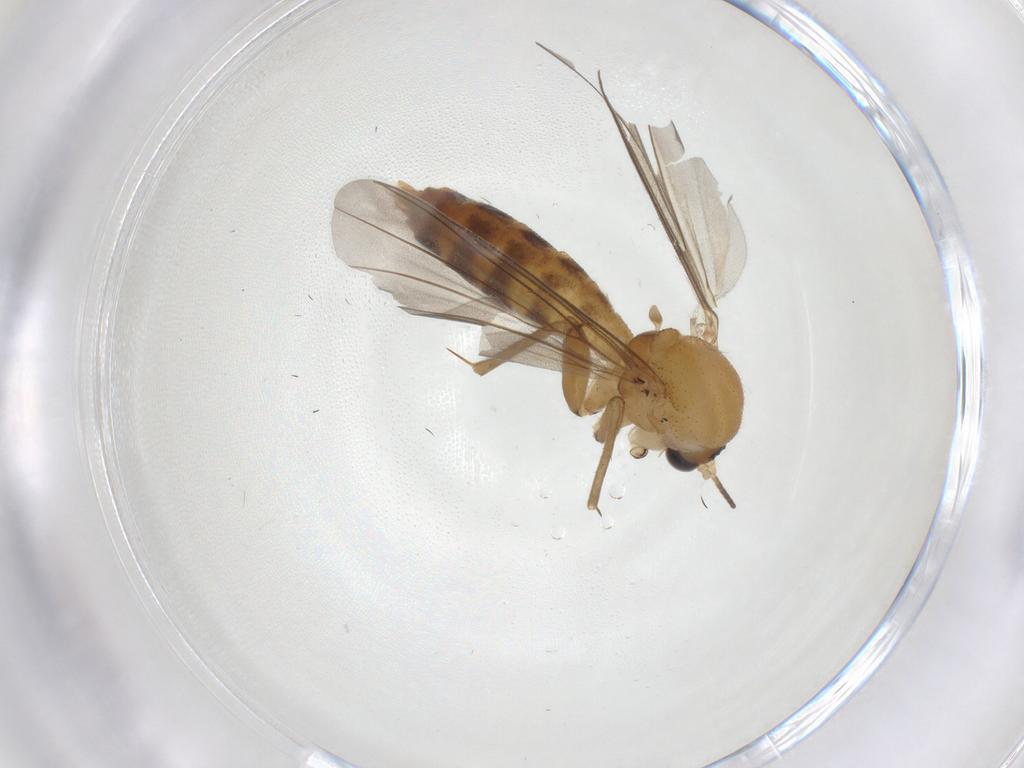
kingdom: Animalia
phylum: Arthropoda
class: Insecta
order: Diptera
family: Mycetophilidae
